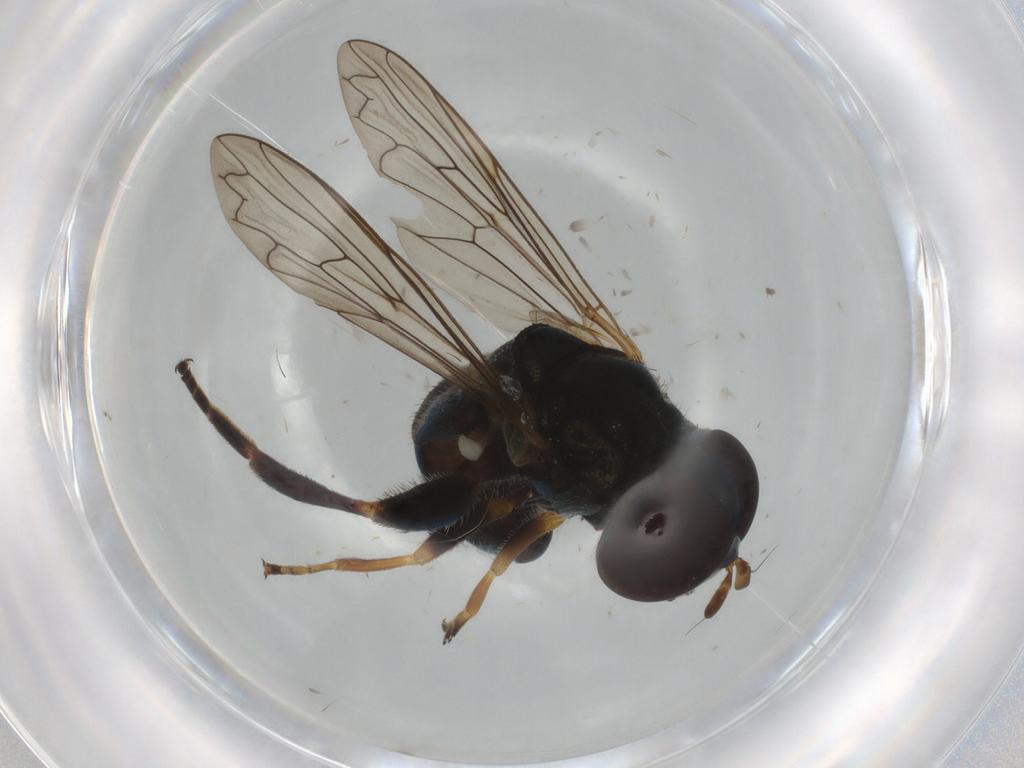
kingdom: Animalia
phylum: Arthropoda
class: Insecta
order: Diptera
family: Syrphidae
